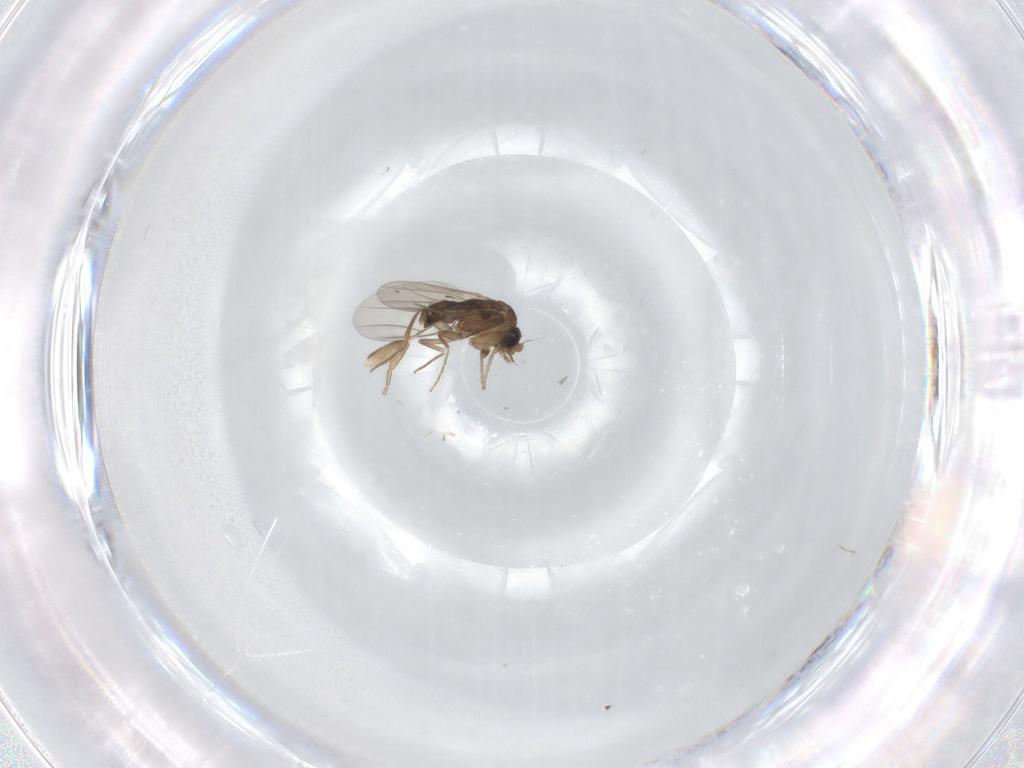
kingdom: Animalia
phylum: Arthropoda
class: Insecta
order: Diptera
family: Phoridae
